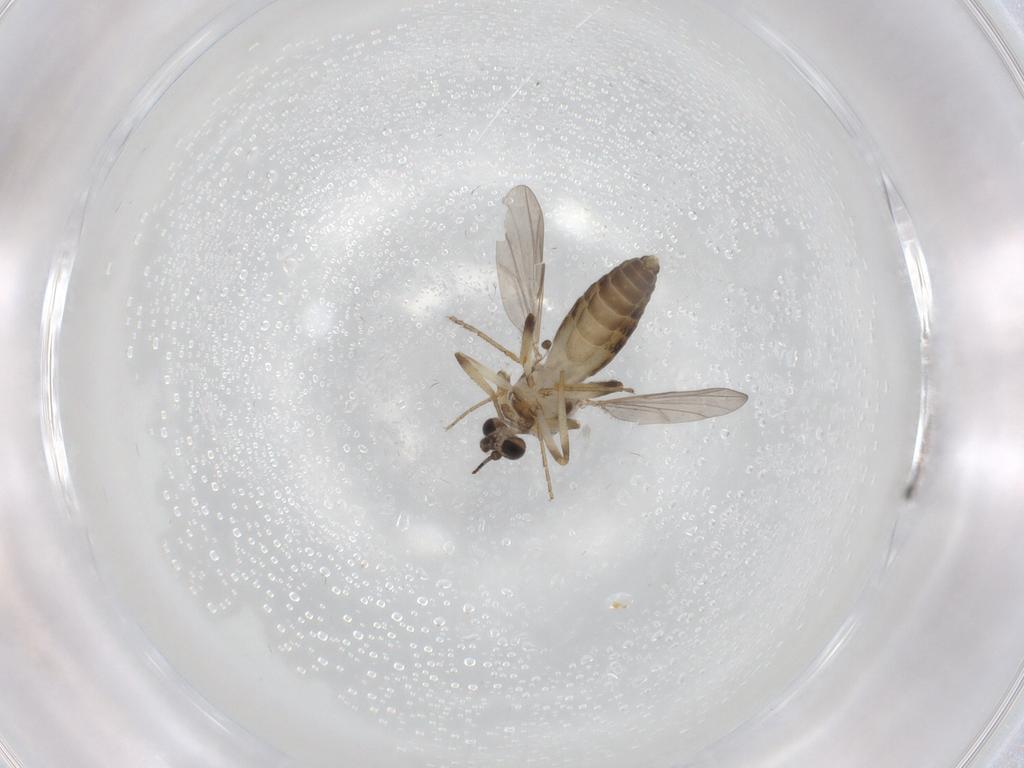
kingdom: Animalia
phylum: Arthropoda
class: Insecta
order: Diptera
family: Ceratopogonidae
